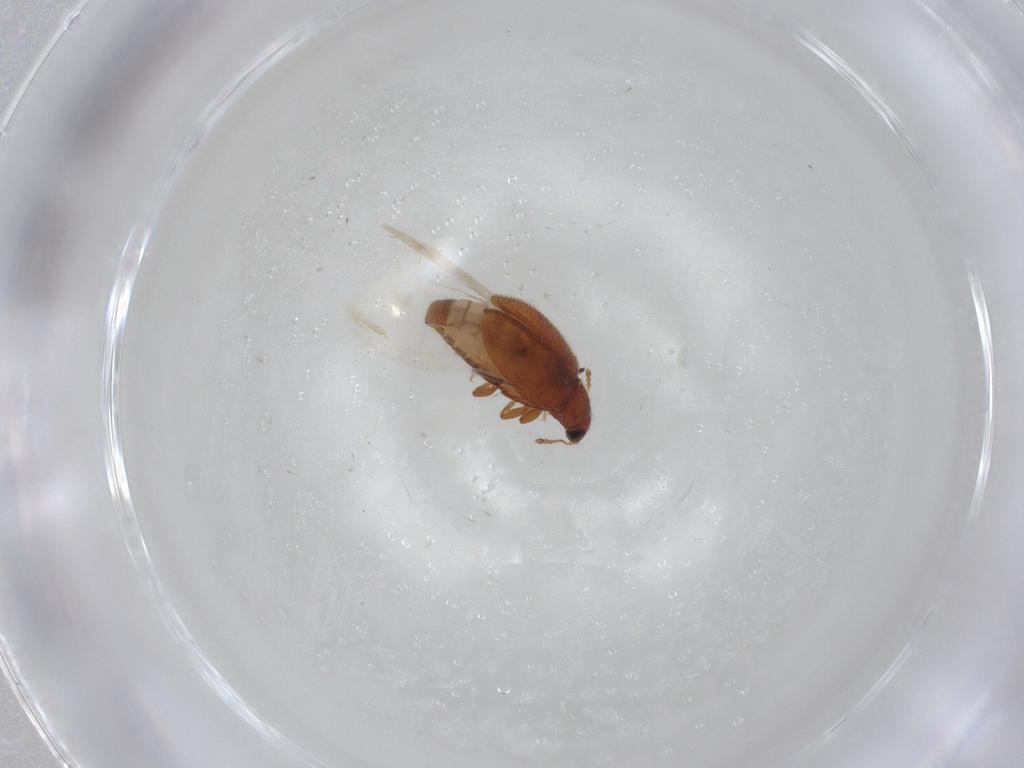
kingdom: Animalia
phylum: Arthropoda
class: Insecta
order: Coleoptera
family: Latridiidae
